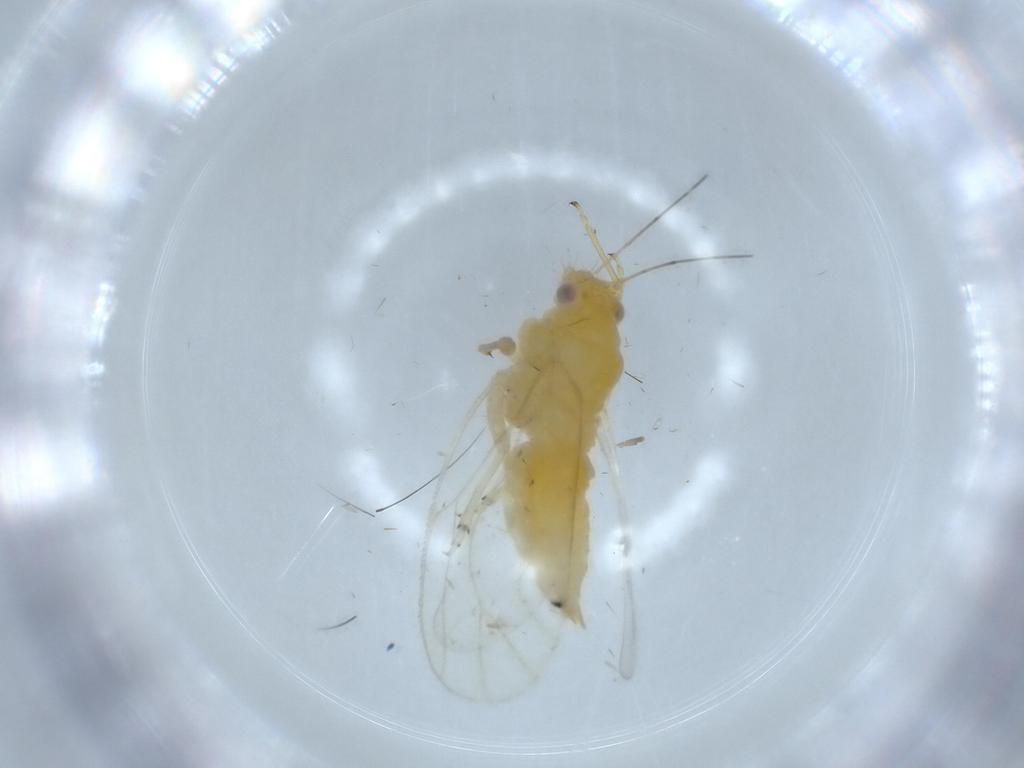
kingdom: Animalia
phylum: Arthropoda
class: Insecta
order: Hemiptera
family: Psyllidae
